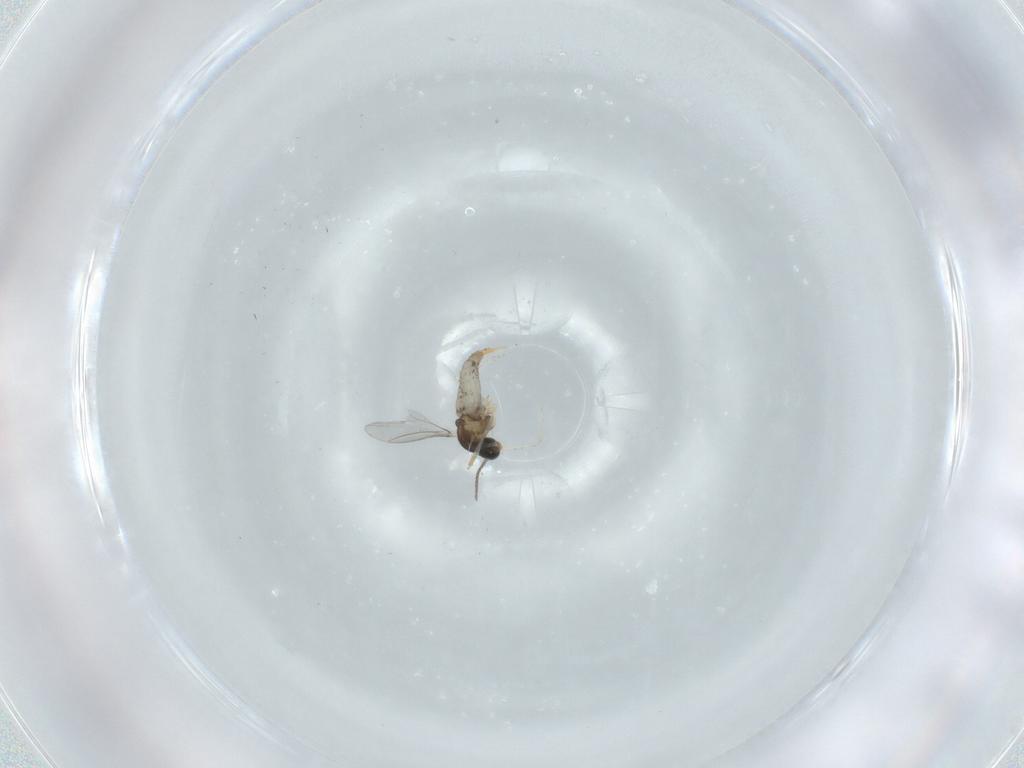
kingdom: Animalia
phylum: Arthropoda
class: Insecta
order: Diptera
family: Cecidomyiidae
